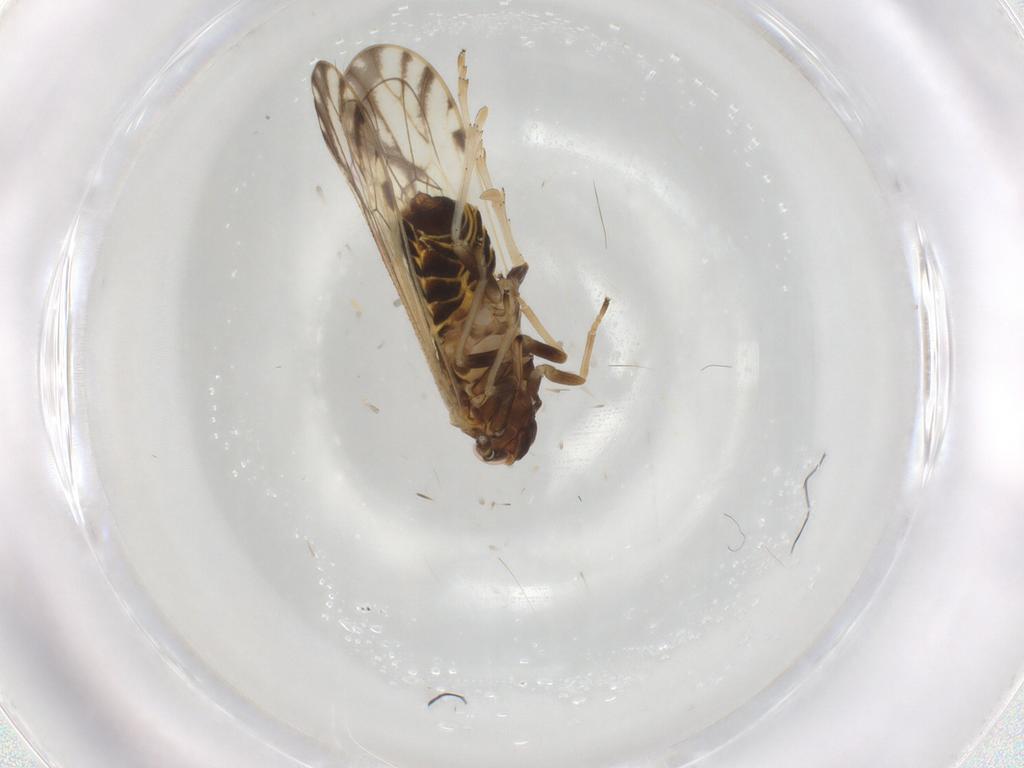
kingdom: Animalia
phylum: Arthropoda
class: Insecta
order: Hemiptera
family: Delphacidae
